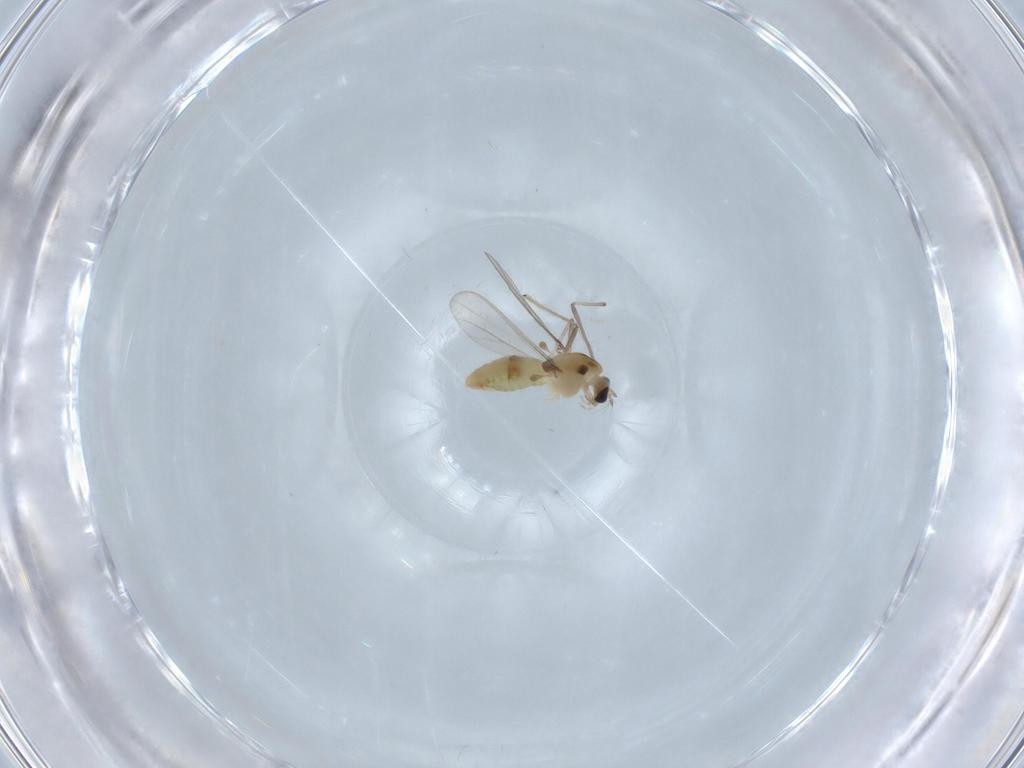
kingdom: Animalia
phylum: Arthropoda
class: Insecta
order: Diptera
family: Chironomidae
